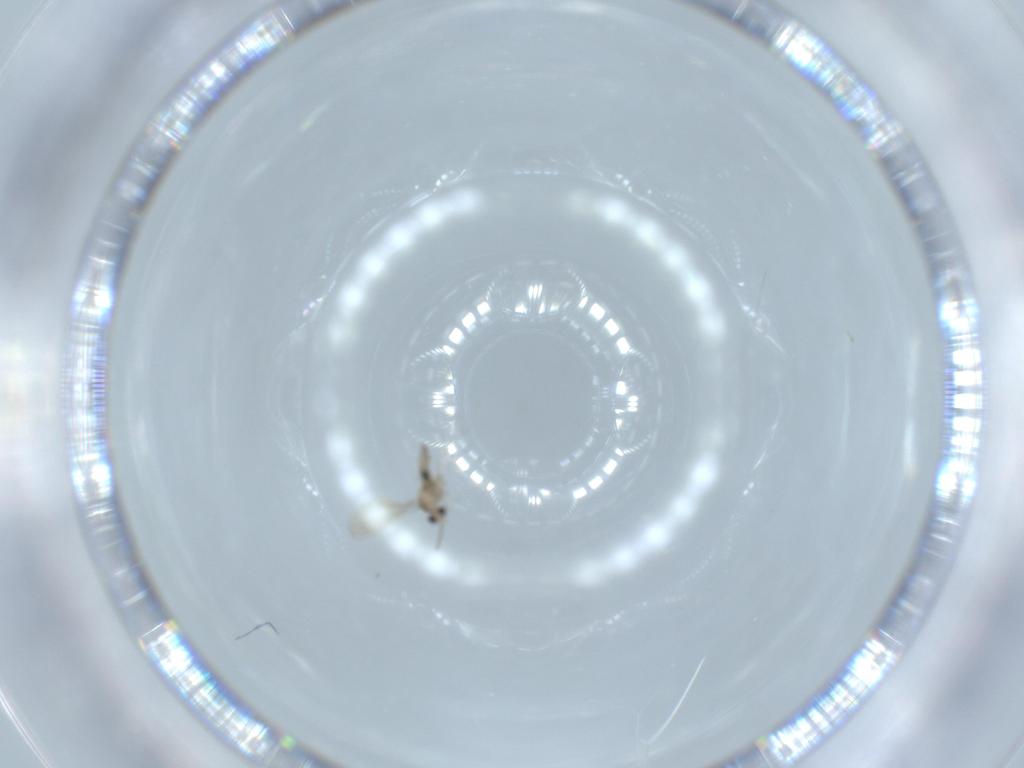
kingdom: Animalia
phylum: Arthropoda
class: Insecta
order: Diptera
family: Cecidomyiidae
